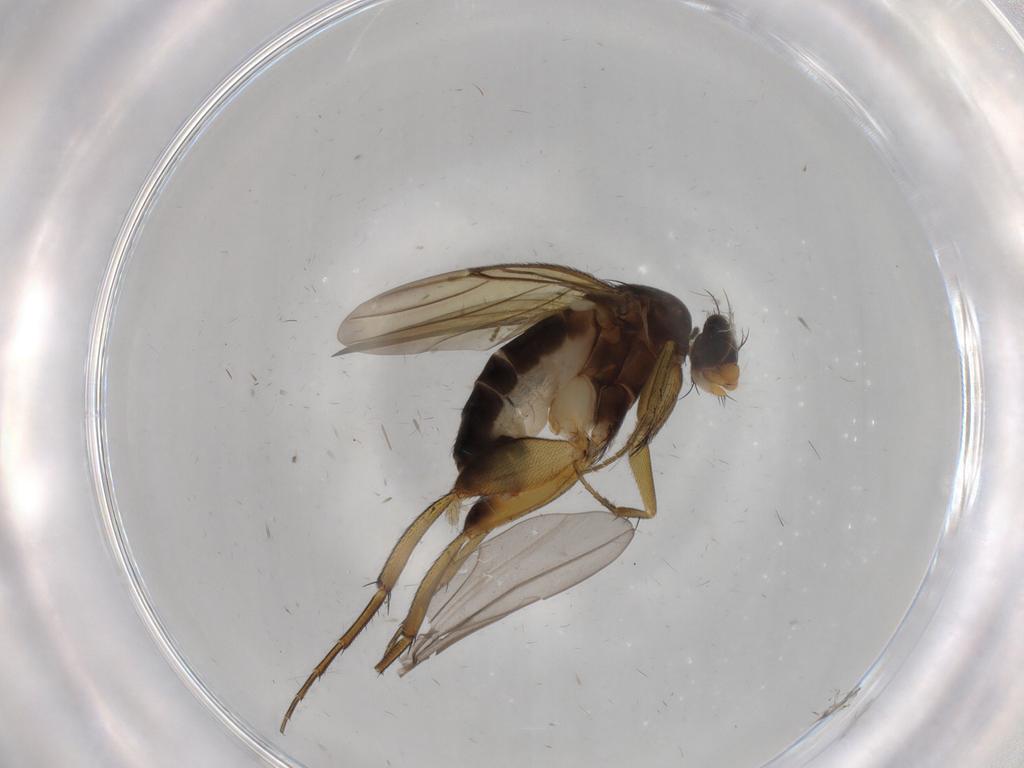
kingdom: Animalia
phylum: Arthropoda
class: Insecta
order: Diptera
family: Phoridae
